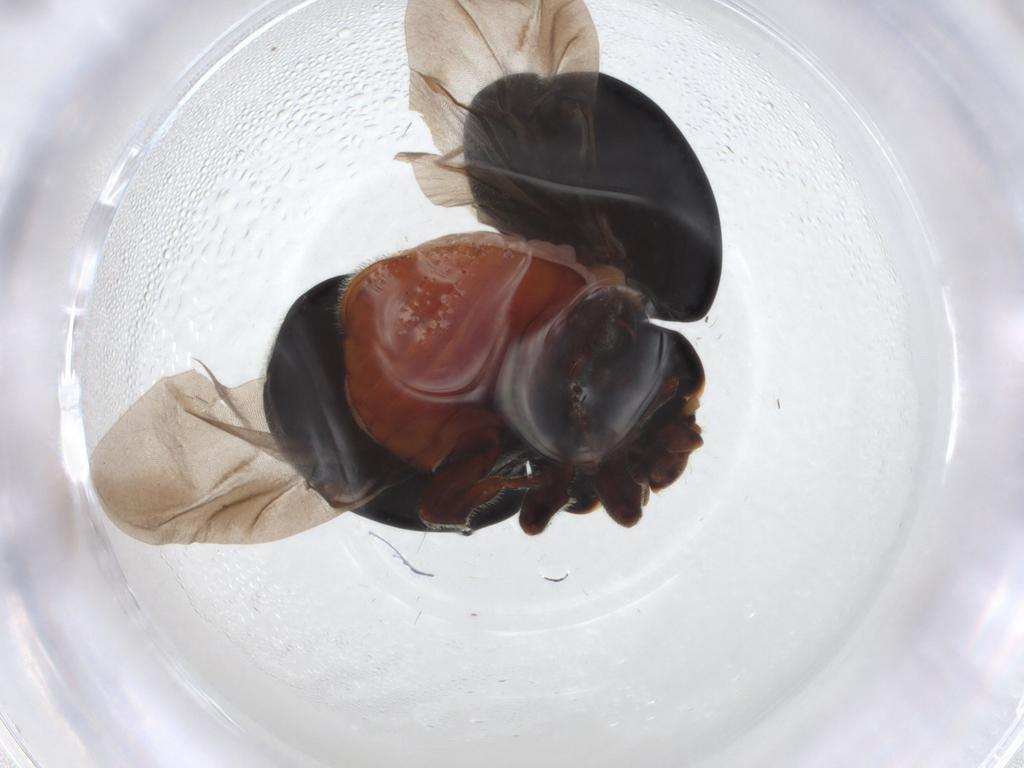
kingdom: Animalia
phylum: Arthropoda
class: Insecta
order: Coleoptera
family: Coccinellidae
